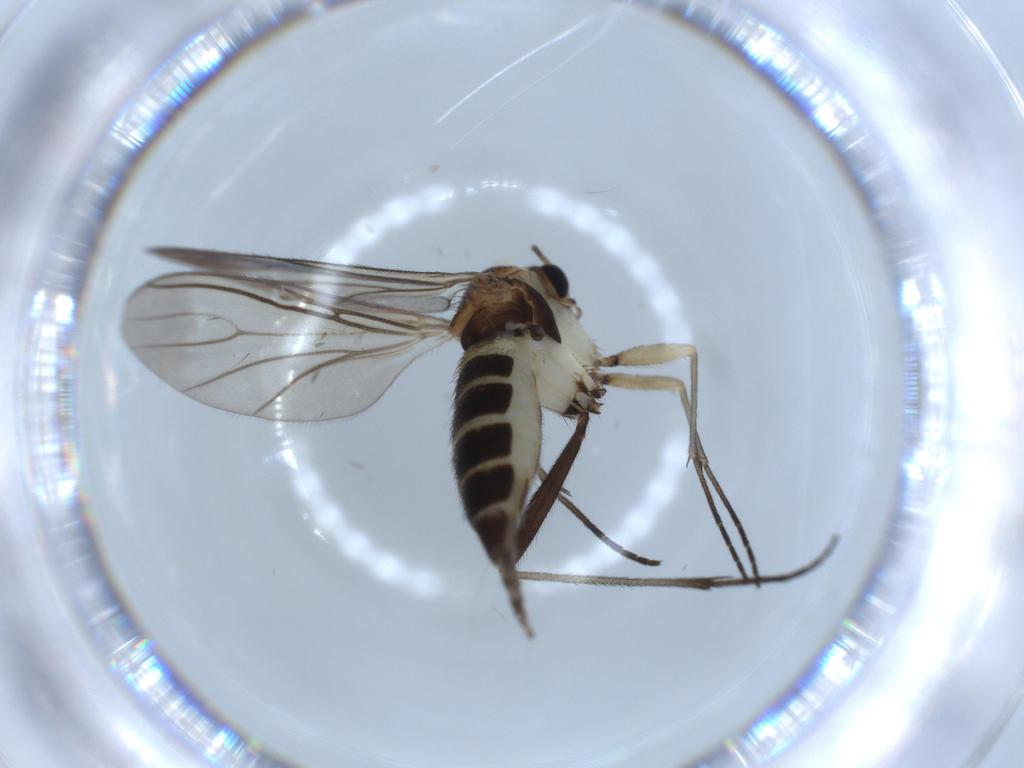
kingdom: Animalia
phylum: Arthropoda
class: Insecta
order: Diptera
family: Sciaridae
